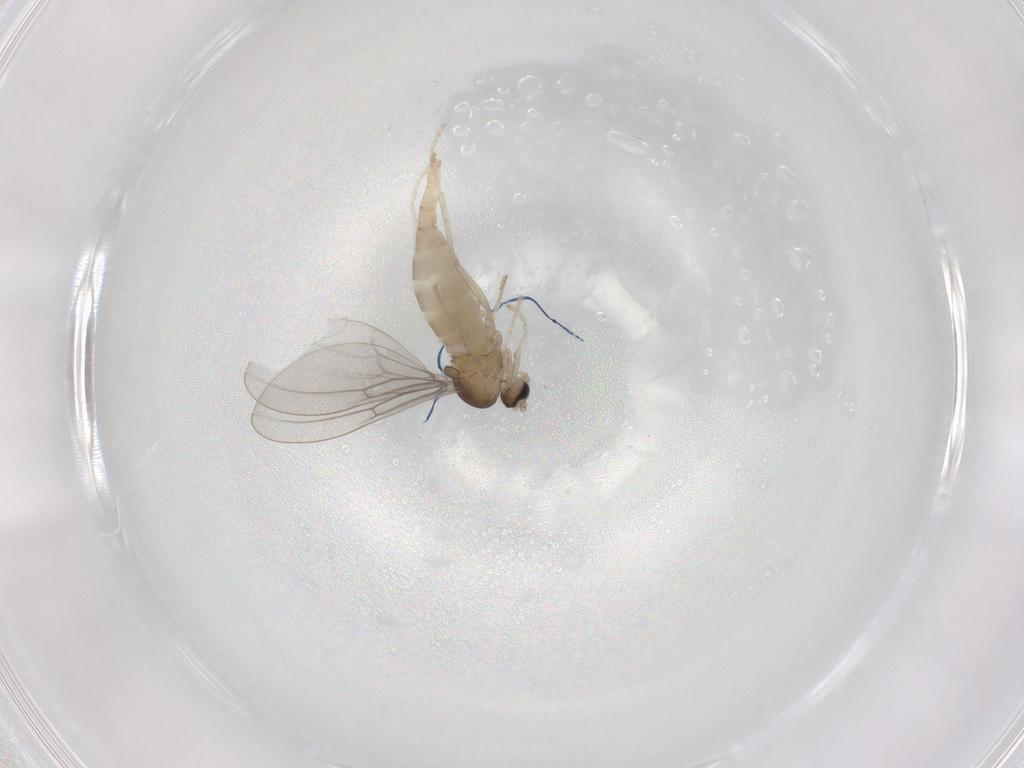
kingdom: Animalia
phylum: Arthropoda
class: Insecta
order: Diptera
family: Cecidomyiidae
